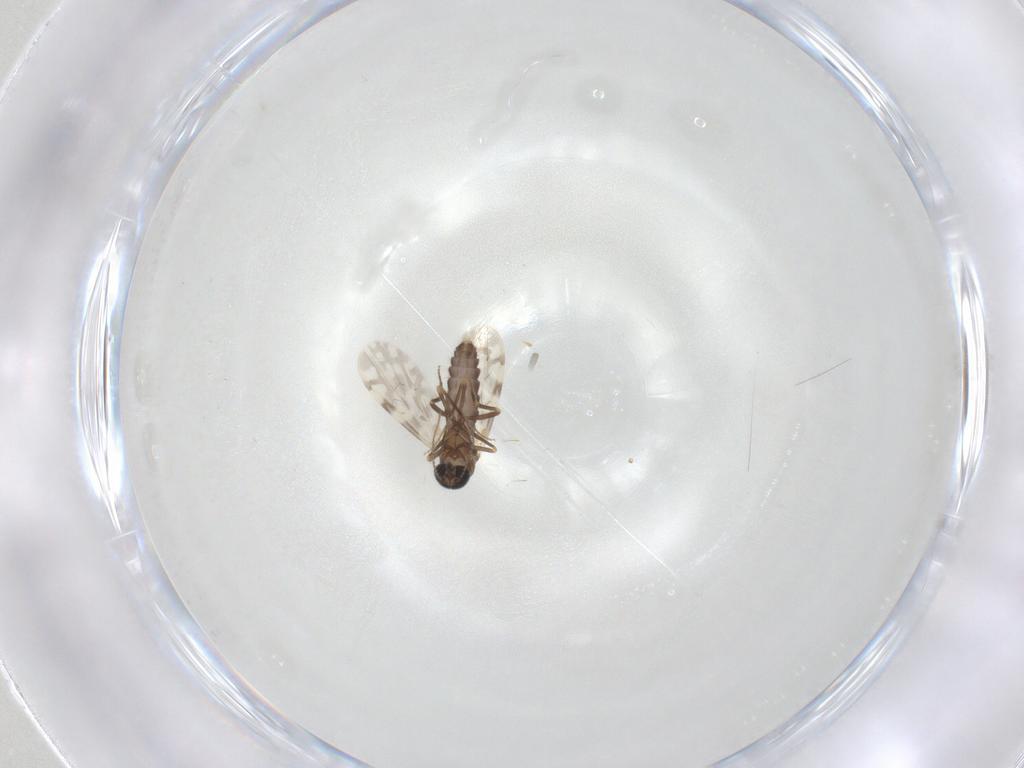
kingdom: Animalia
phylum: Arthropoda
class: Insecta
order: Diptera
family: Ceratopogonidae
